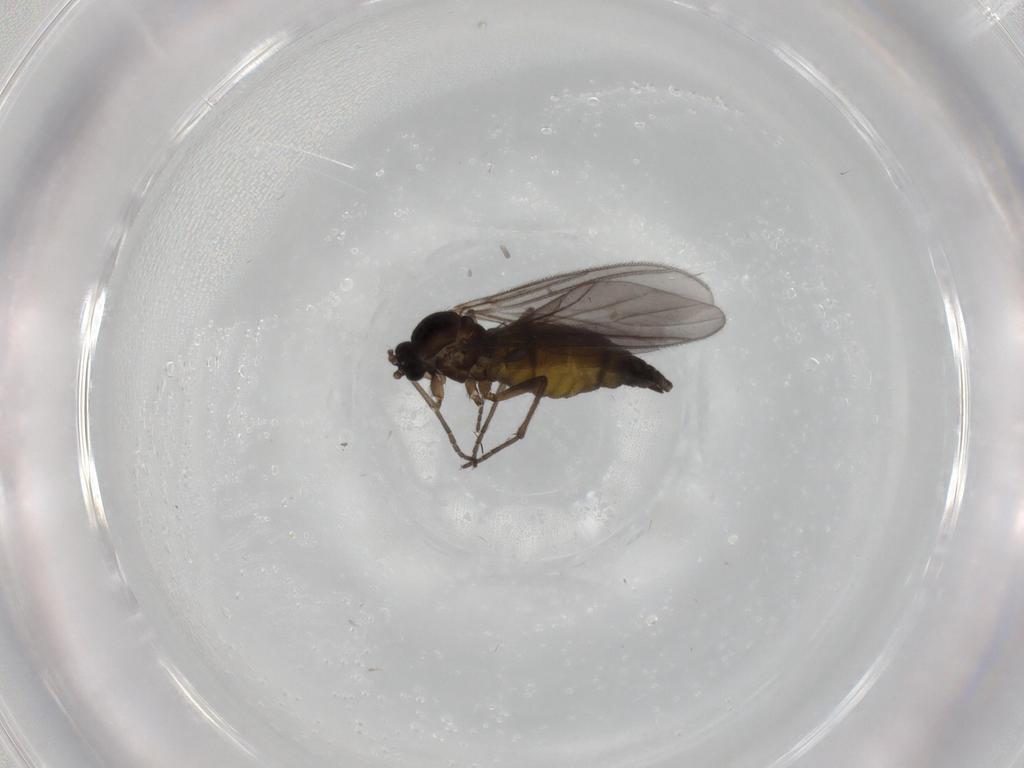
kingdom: Animalia
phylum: Arthropoda
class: Insecta
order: Diptera
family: Sciaridae
